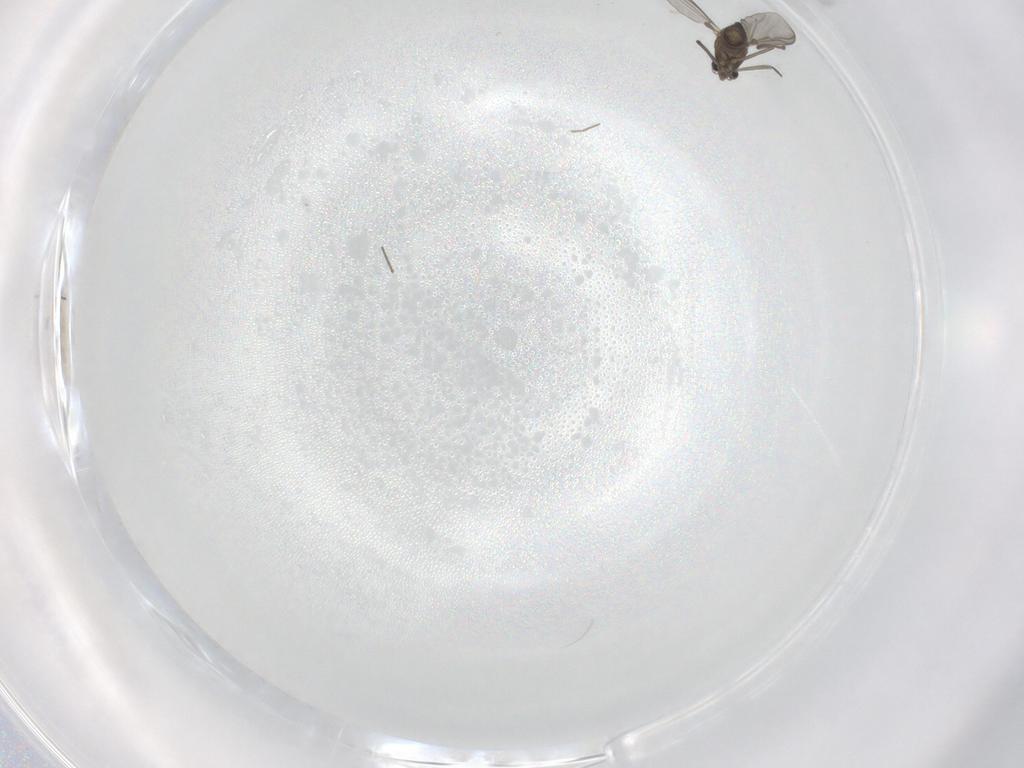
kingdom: Animalia
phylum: Arthropoda
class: Insecta
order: Diptera
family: Chironomidae
